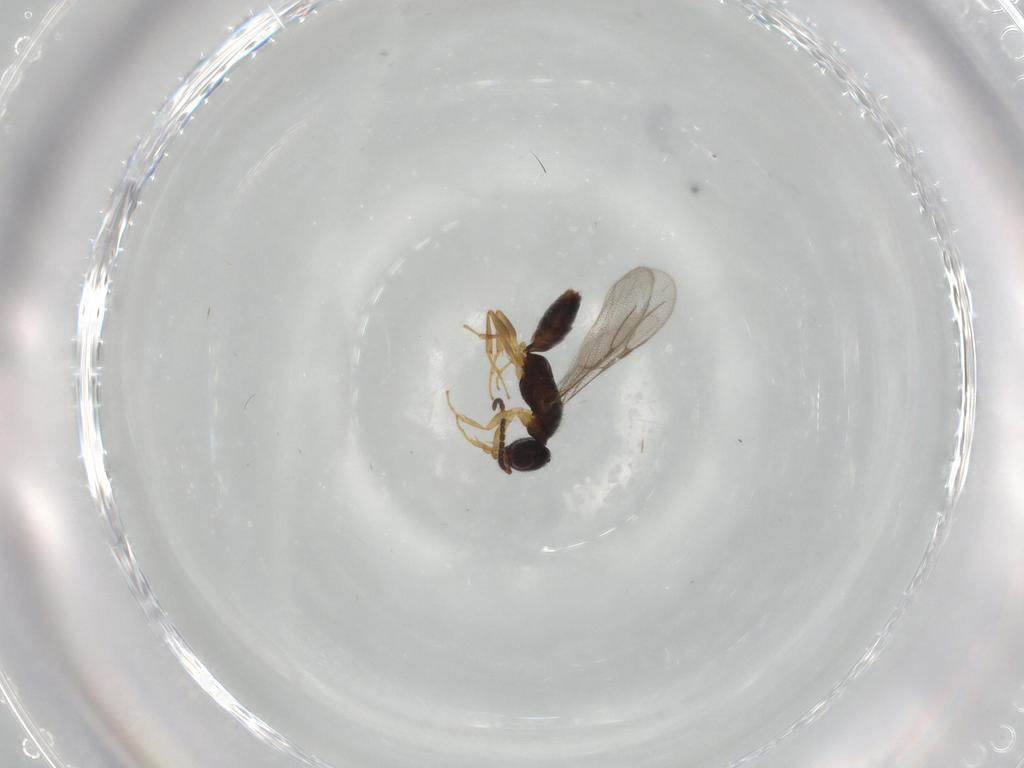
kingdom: Animalia
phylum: Arthropoda
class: Insecta
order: Hymenoptera
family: Bethylidae
